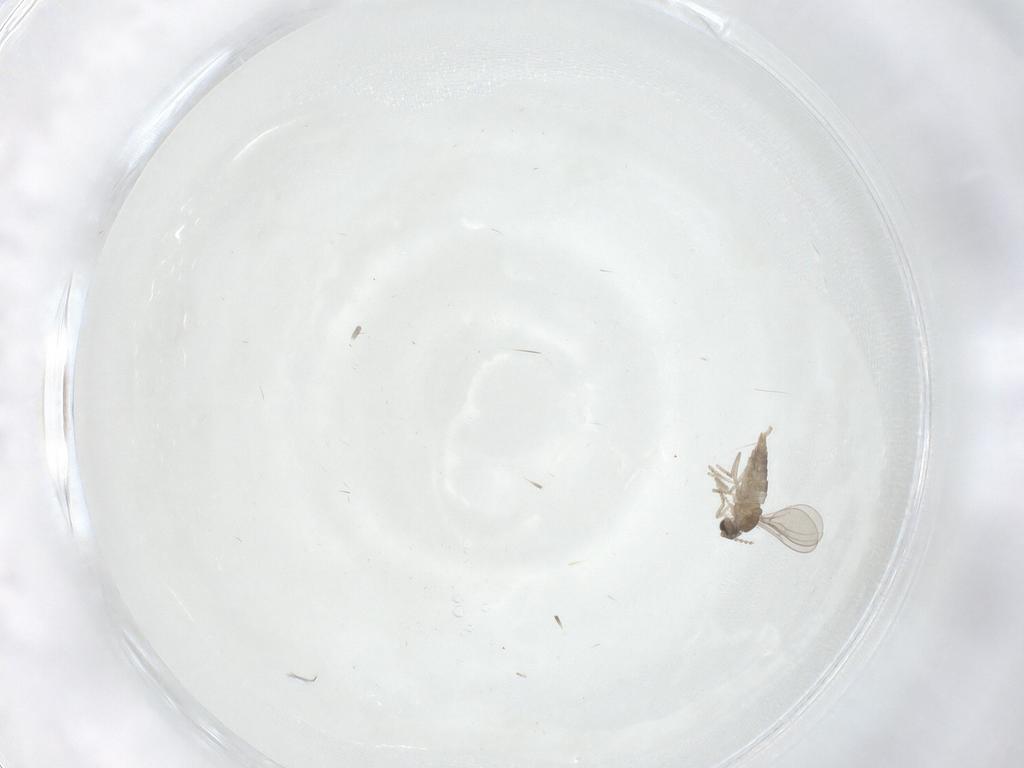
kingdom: Animalia
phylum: Arthropoda
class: Insecta
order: Diptera
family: Cecidomyiidae
